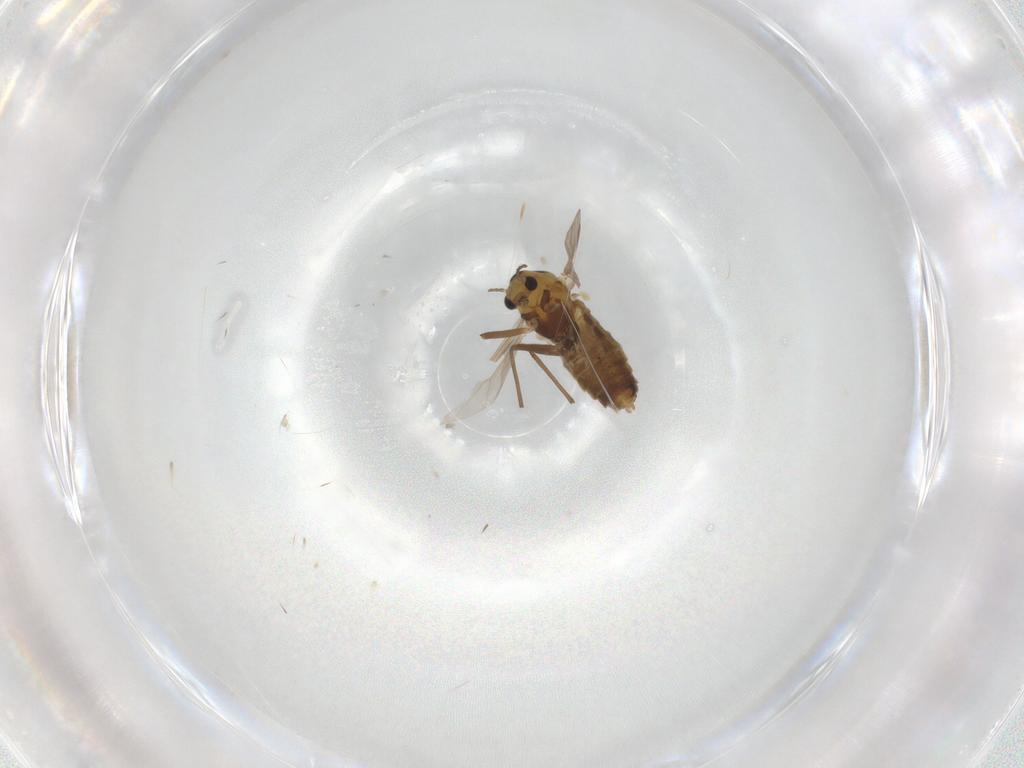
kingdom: Animalia
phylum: Arthropoda
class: Insecta
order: Diptera
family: Chironomidae
